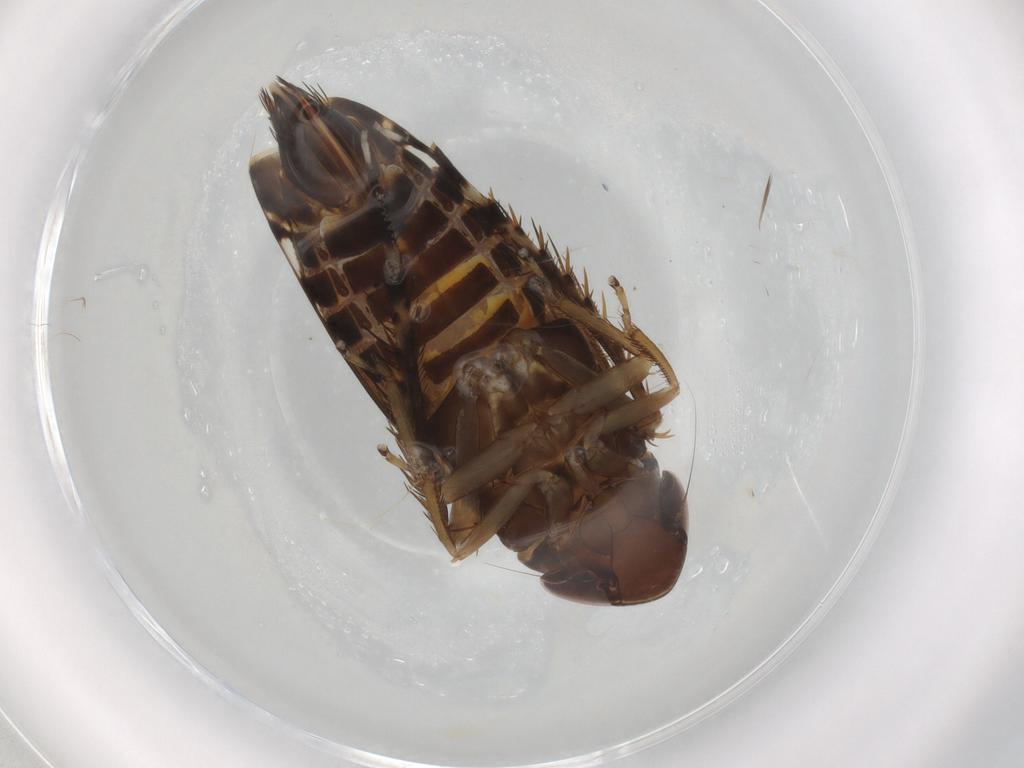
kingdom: Animalia
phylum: Arthropoda
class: Insecta
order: Hemiptera
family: Cicadellidae
